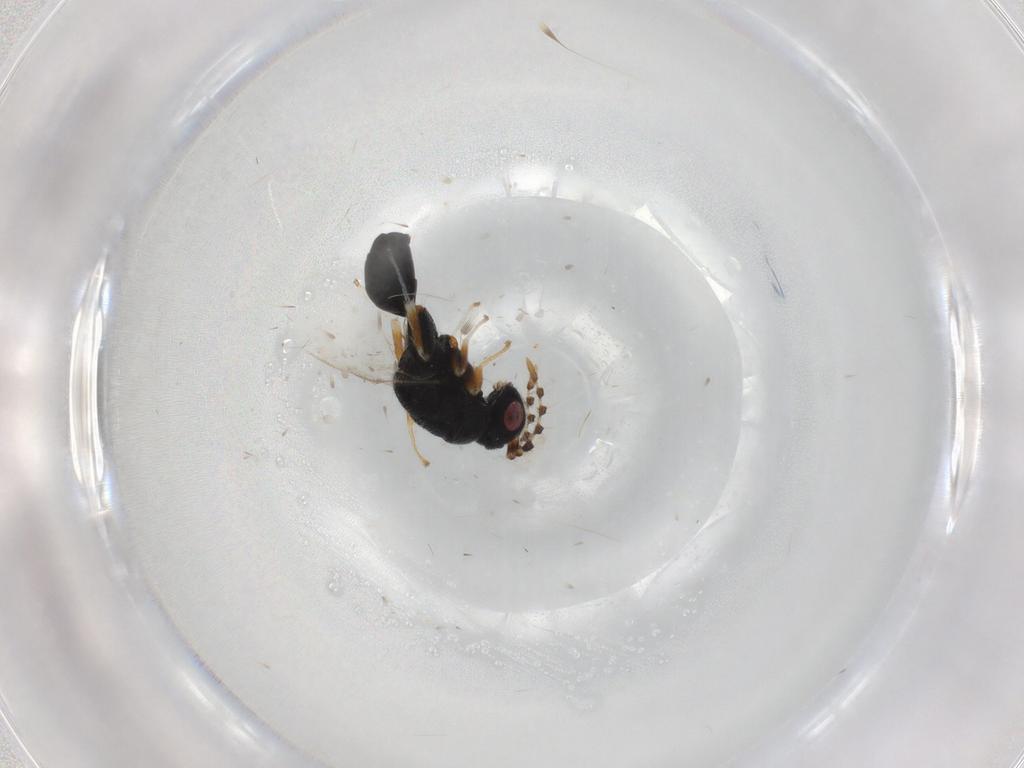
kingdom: Animalia
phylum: Arthropoda
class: Insecta
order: Hymenoptera
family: Eurytomidae
